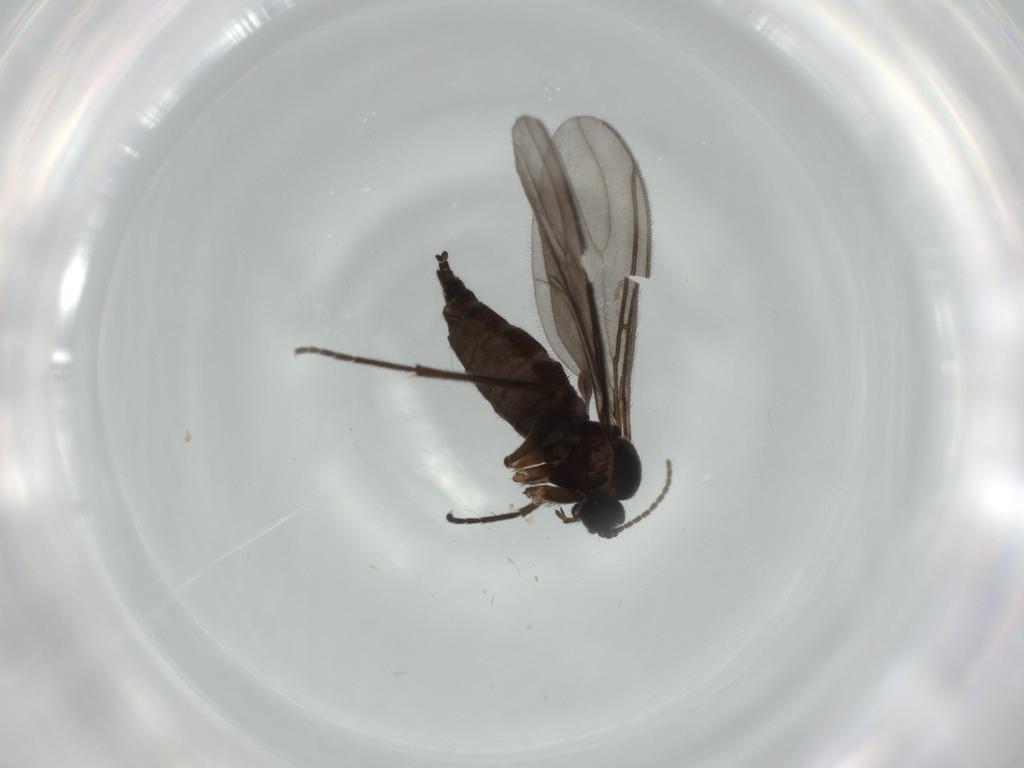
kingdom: Animalia
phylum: Arthropoda
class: Insecta
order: Diptera
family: Sciaridae
